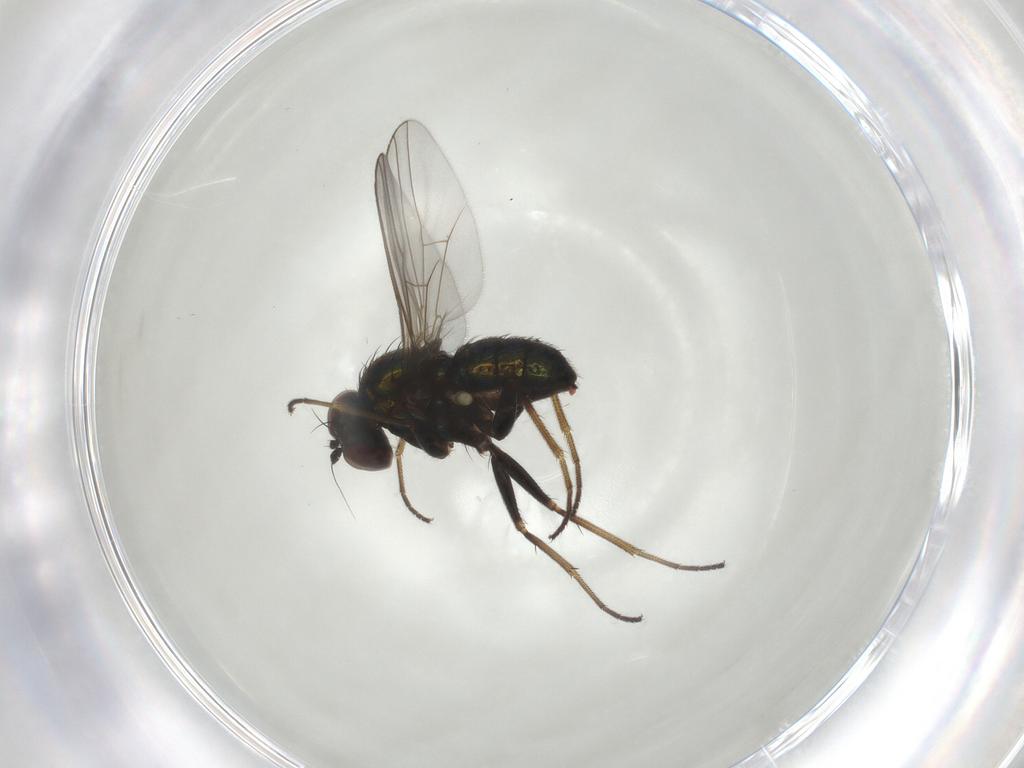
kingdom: Animalia
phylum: Arthropoda
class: Insecta
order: Diptera
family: Dolichopodidae
